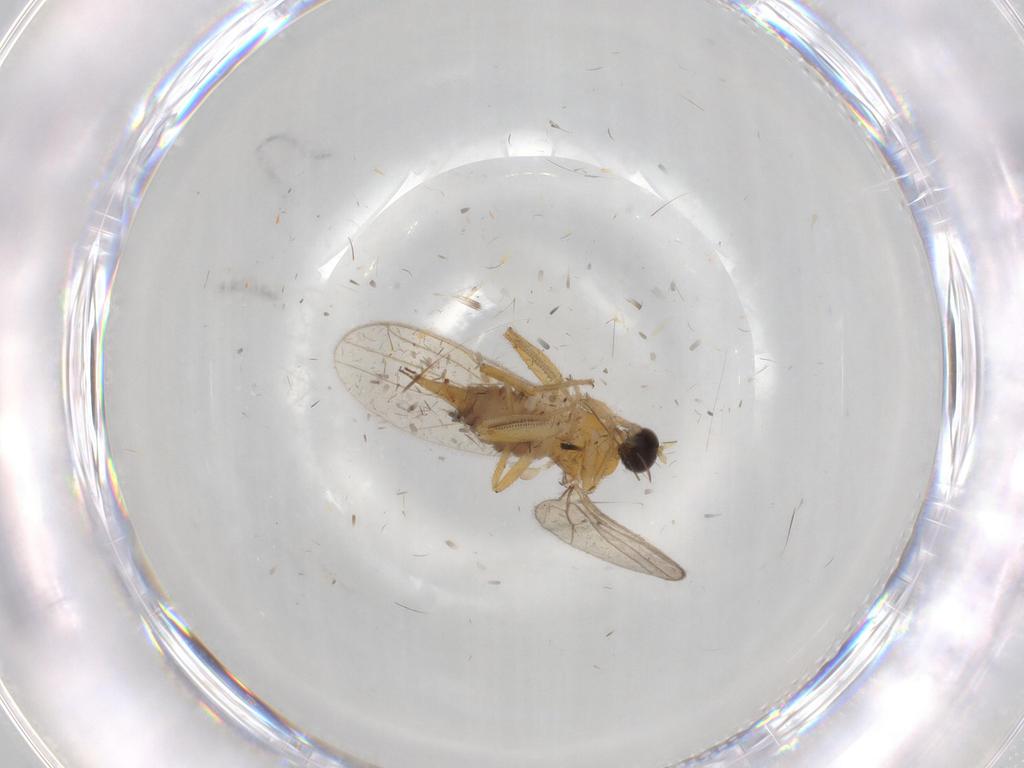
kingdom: Animalia
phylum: Arthropoda
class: Insecta
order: Diptera
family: Hybotidae
